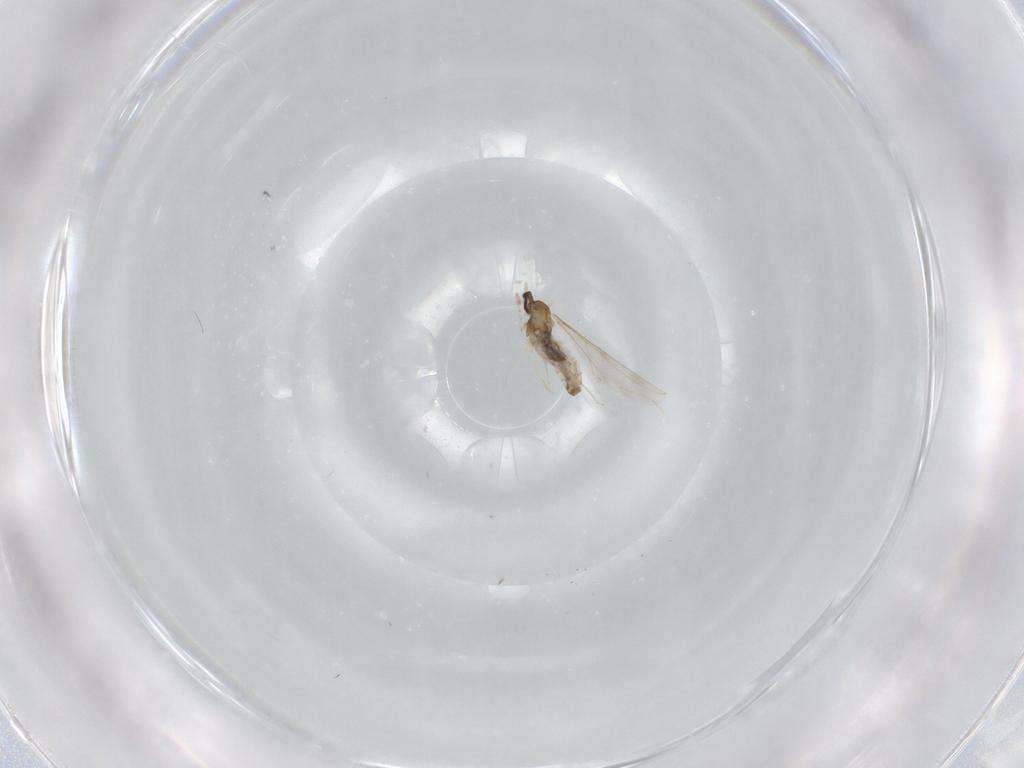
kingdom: Animalia
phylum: Arthropoda
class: Insecta
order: Diptera
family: Cecidomyiidae
